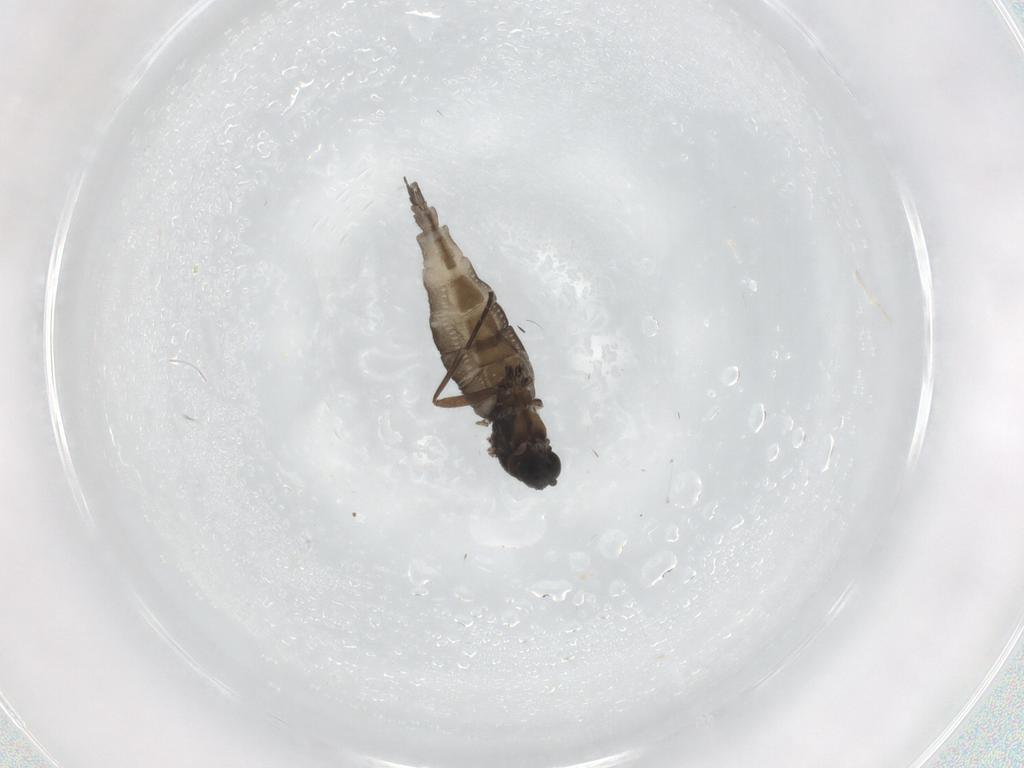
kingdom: Animalia
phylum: Arthropoda
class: Insecta
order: Diptera
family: Sciaridae
